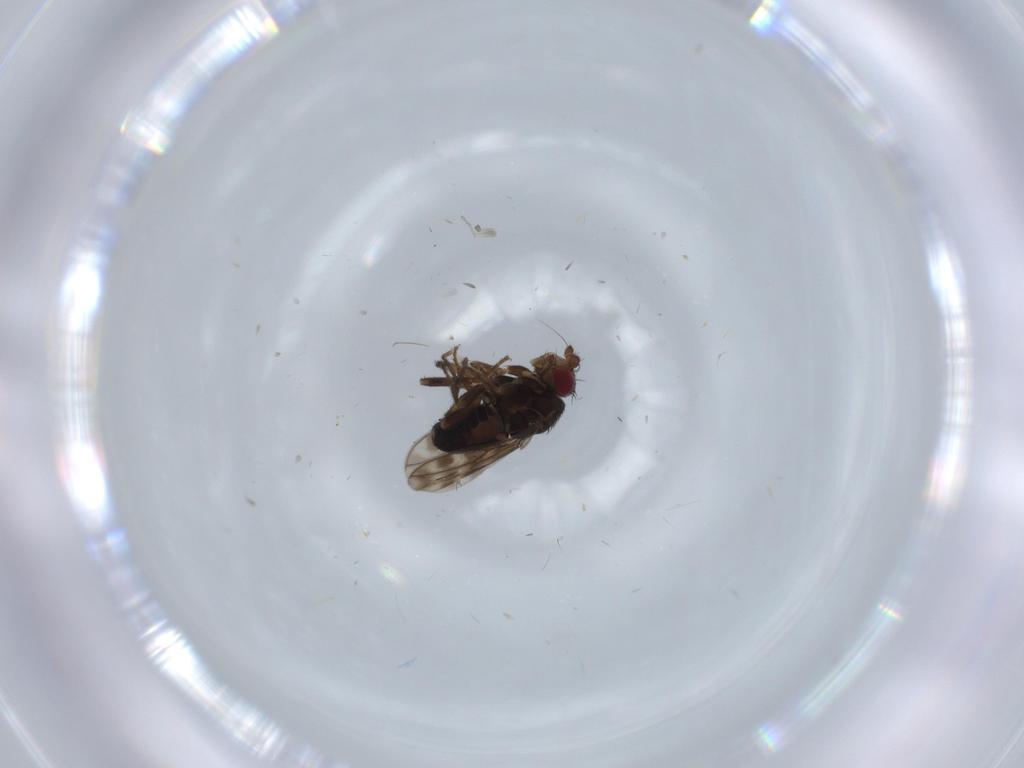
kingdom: Animalia
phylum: Arthropoda
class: Insecta
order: Diptera
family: Sphaeroceridae
